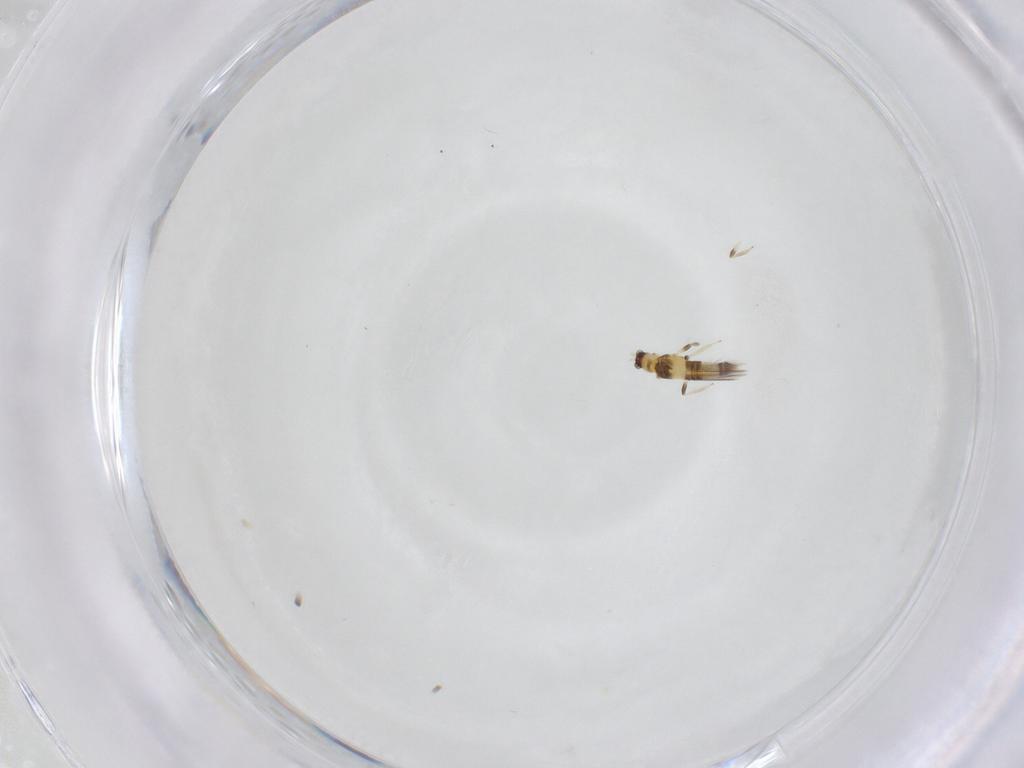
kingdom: Animalia
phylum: Arthropoda
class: Insecta
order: Thysanoptera
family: Thripidae
